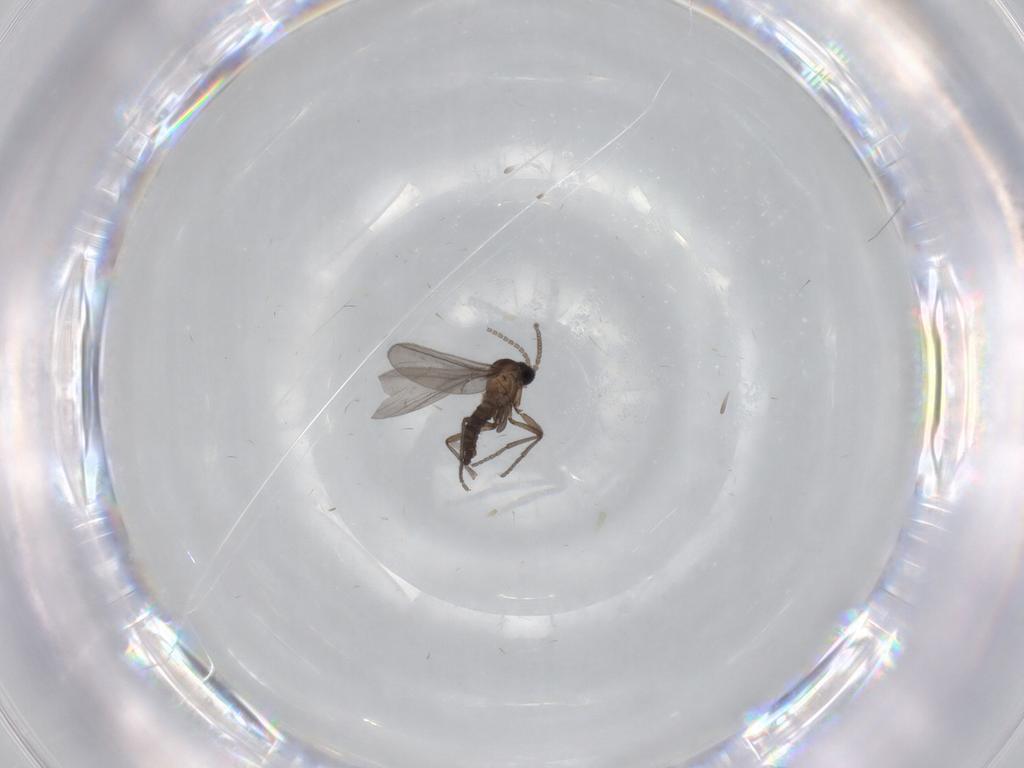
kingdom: Animalia
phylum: Arthropoda
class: Insecta
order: Diptera
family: Sciaridae
